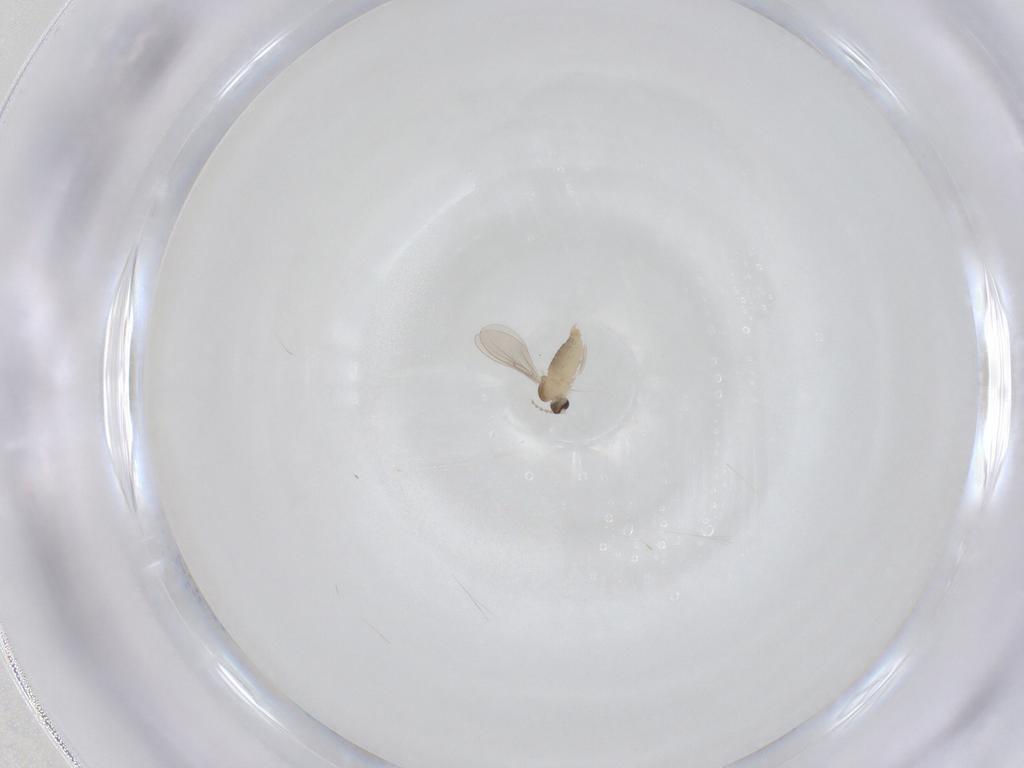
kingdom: Animalia
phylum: Arthropoda
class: Insecta
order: Diptera
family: Cecidomyiidae
